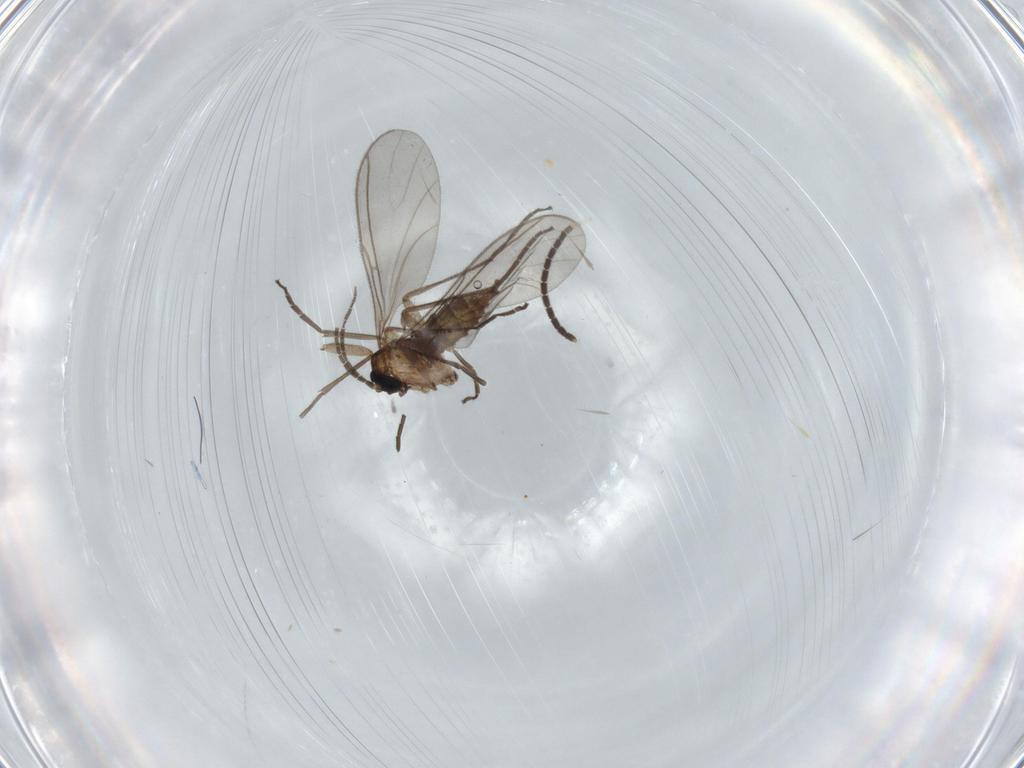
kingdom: Animalia
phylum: Arthropoda
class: Insecta
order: Diptera
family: Sciaridae
